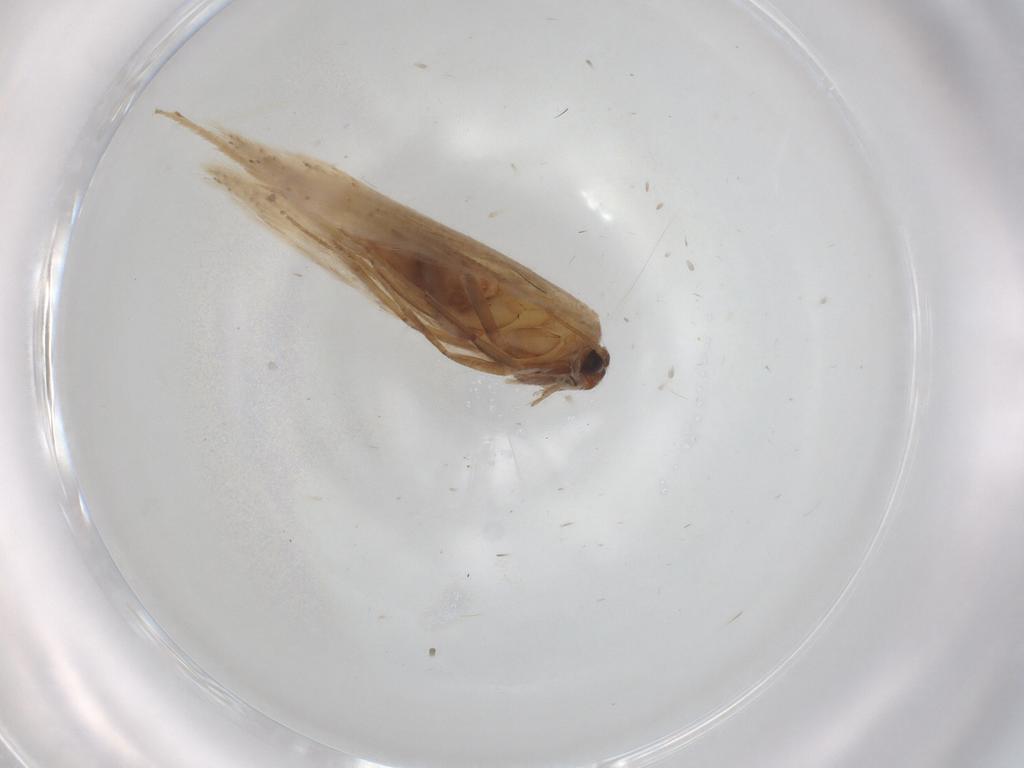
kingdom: Animalia
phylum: Arthropoda
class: Insecta
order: Lepidoptera
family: Gelechiidae
